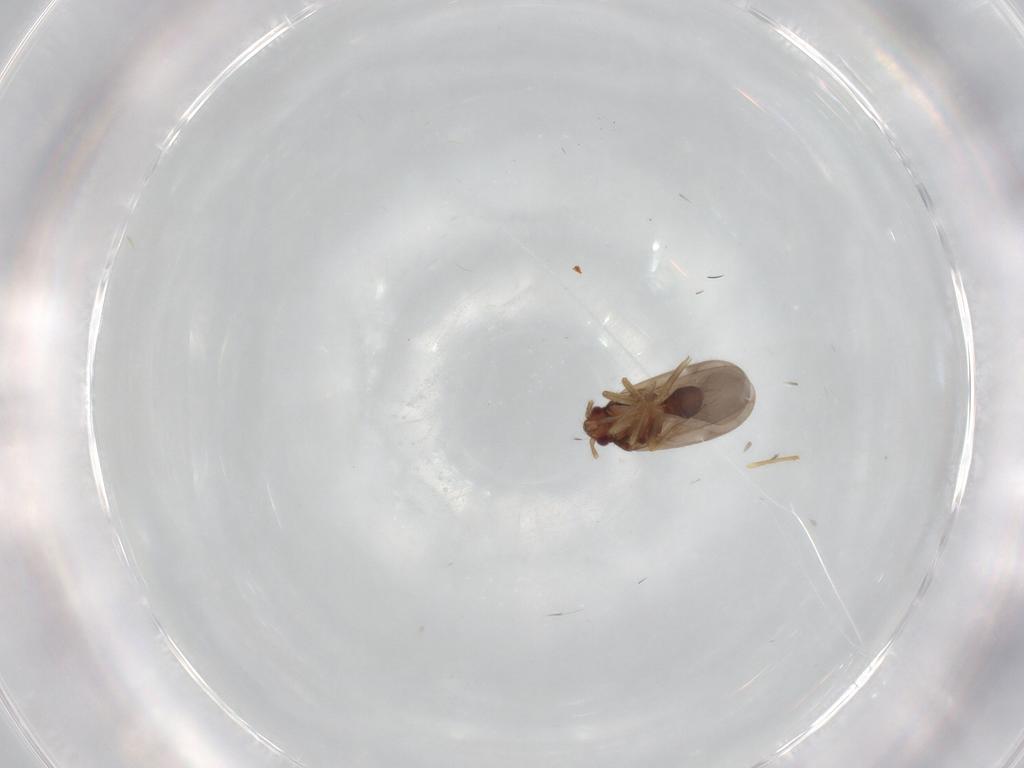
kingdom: Animalia
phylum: Arthropoda
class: Insecta
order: Hemiptera
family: Ceratocombidae
